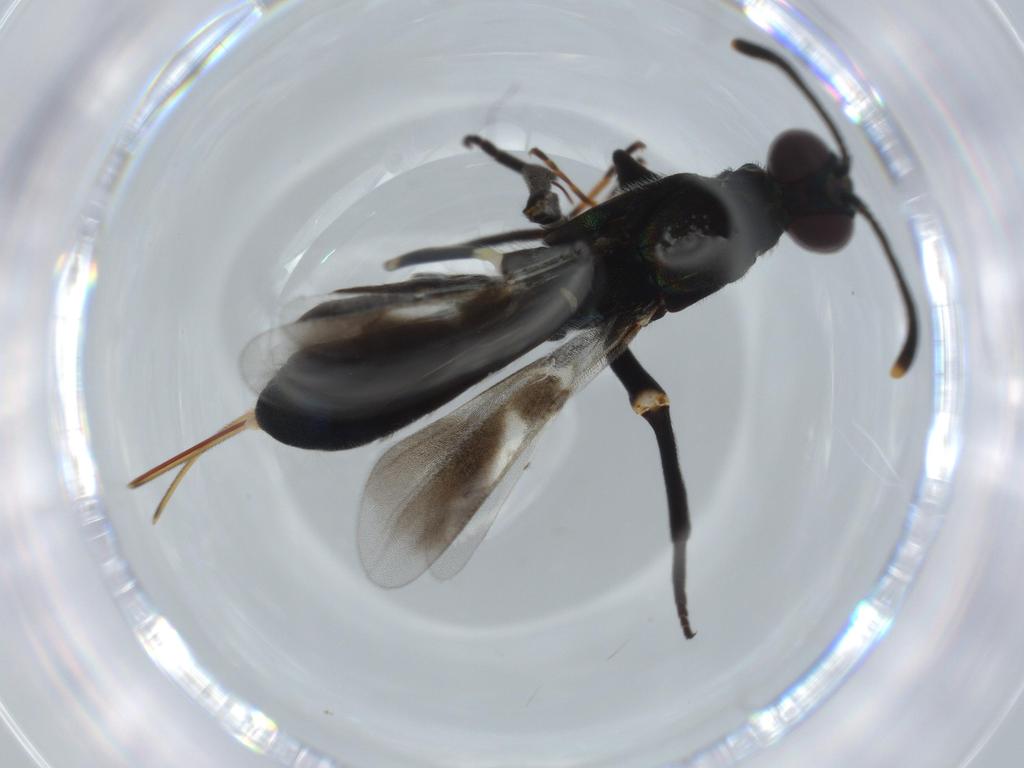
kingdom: Animalia
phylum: Arthropoda
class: Insecta
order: Hymenoptera
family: Eupelmidae
